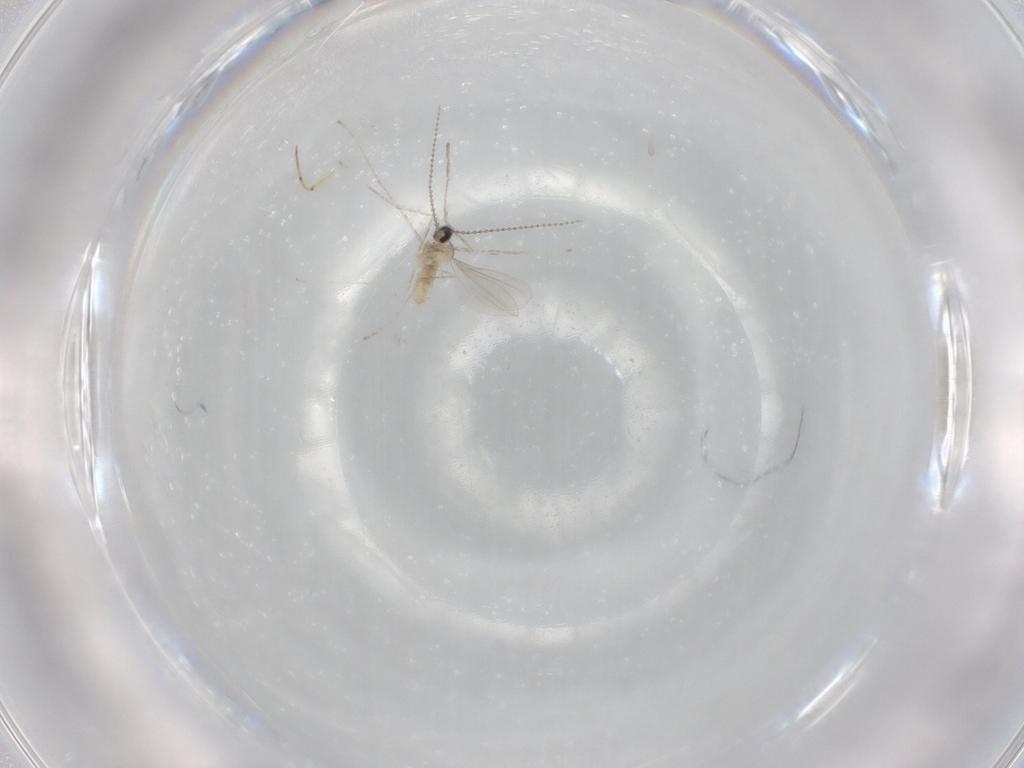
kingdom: Animalia
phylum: Arthropoda
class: Insecta
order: Diptera
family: Cecidomyiidae
